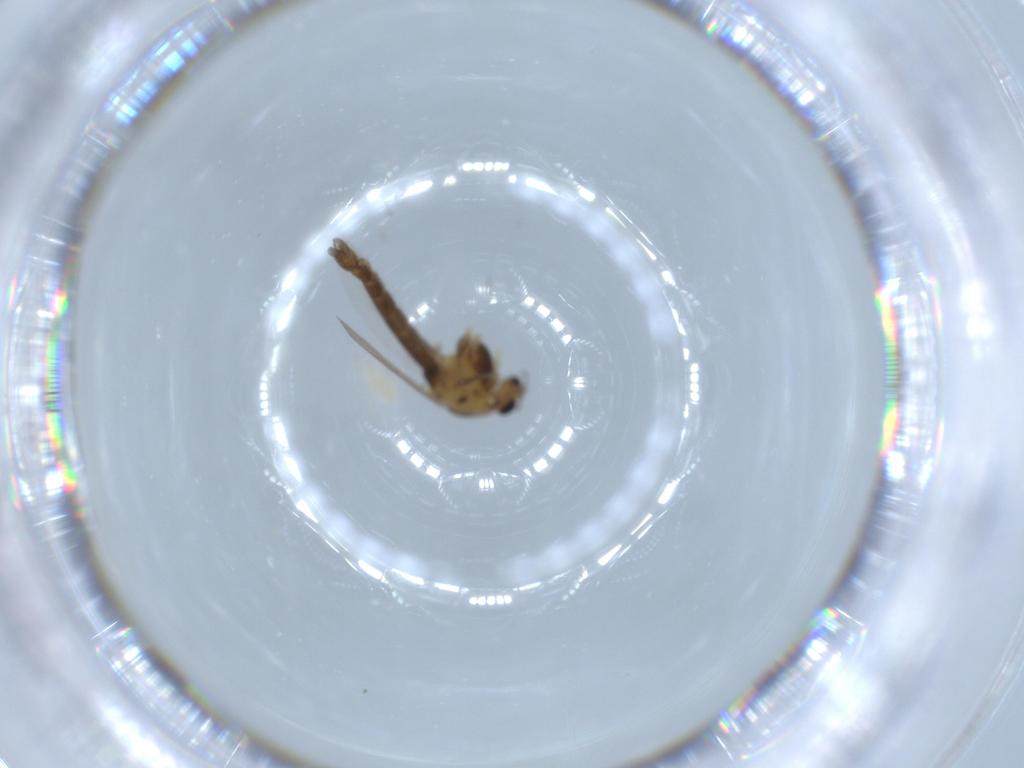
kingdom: Animalia
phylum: Arthropoda
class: Insecta
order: Diptera
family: Chironomidae
